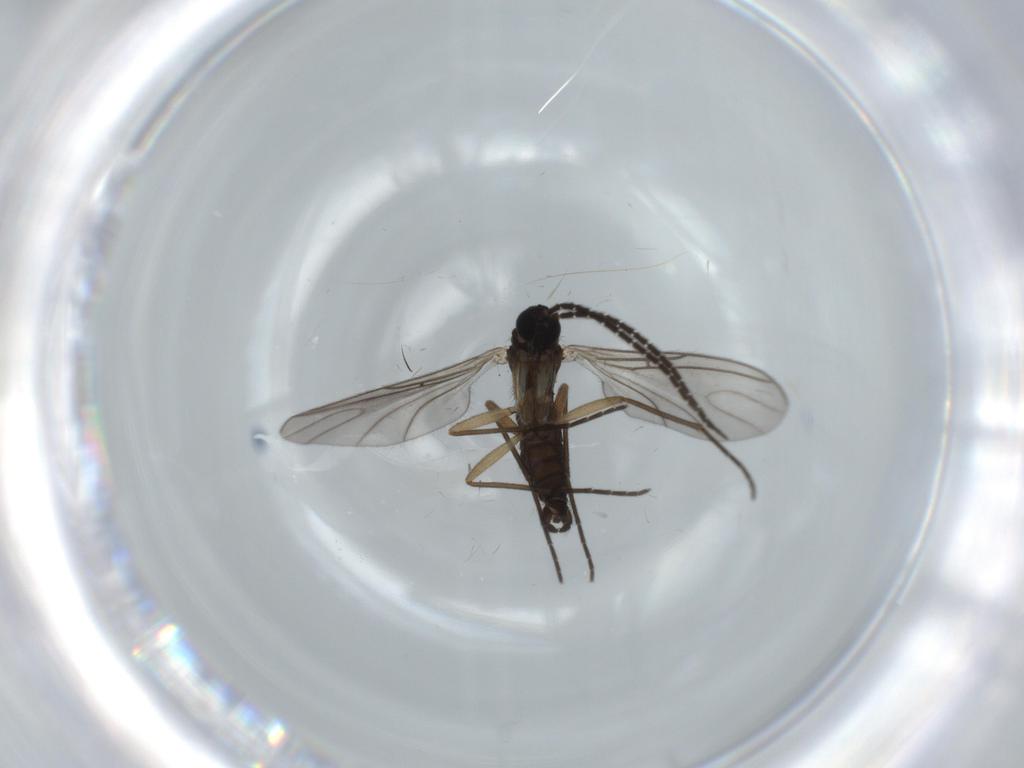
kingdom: Animalia
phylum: Arthropoda
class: Insecta
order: Diptera
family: Sciaridae
